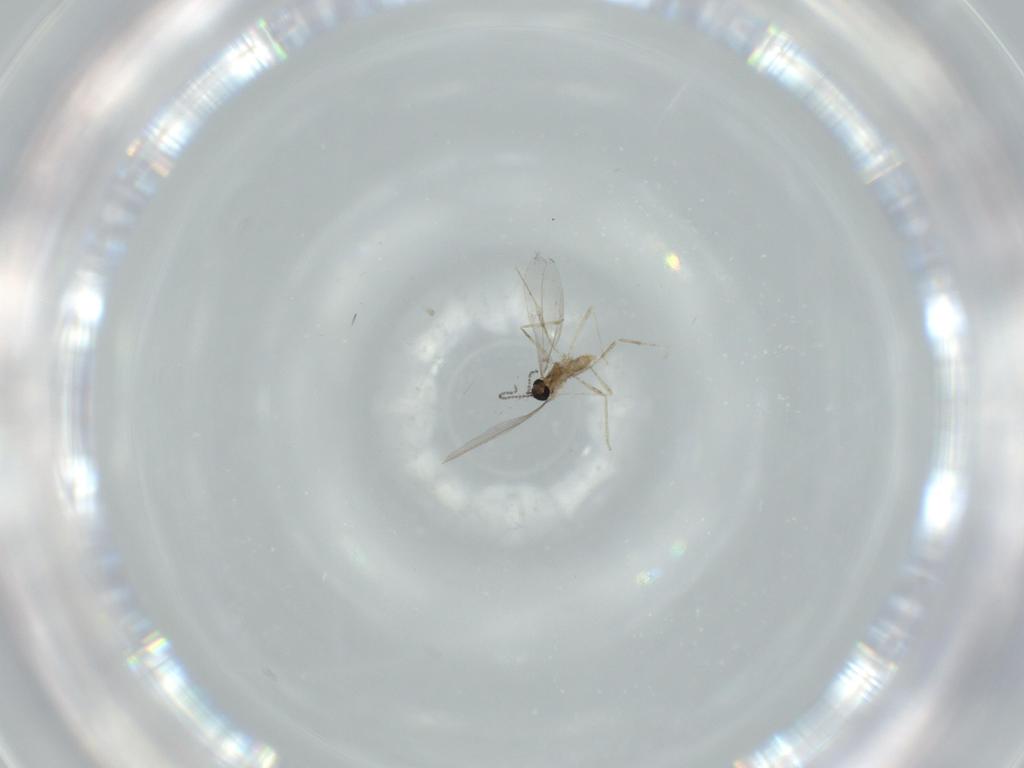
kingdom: Animalia
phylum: Arthropoda
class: Insecta
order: Diptera
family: Cecidomyiidae
